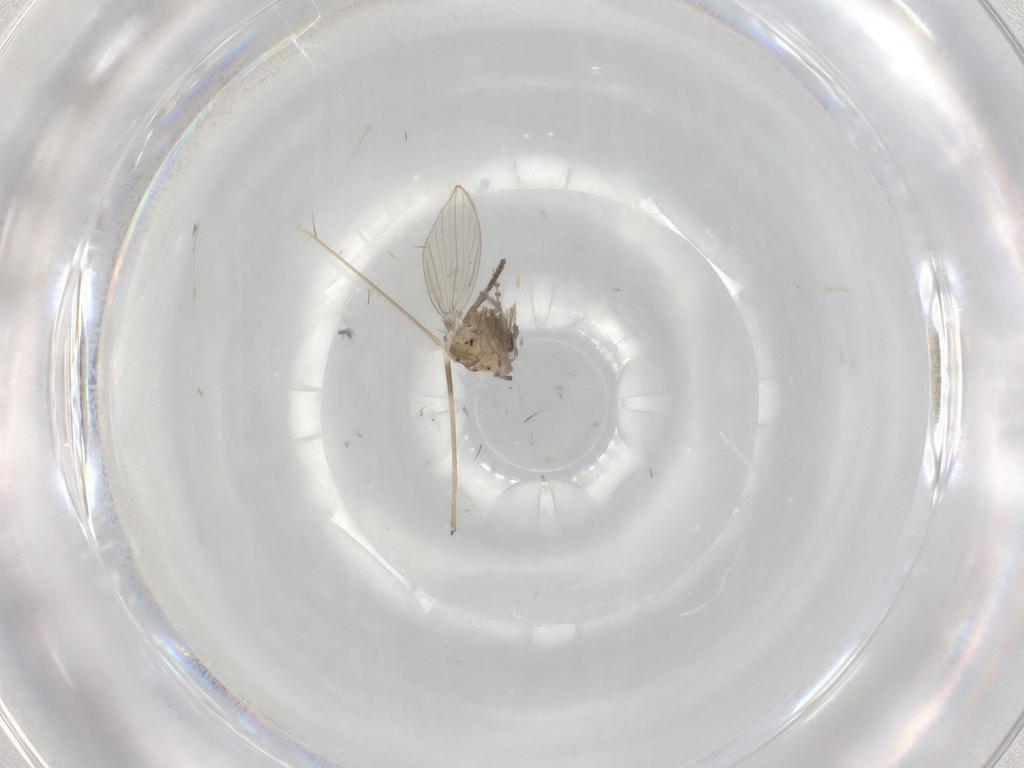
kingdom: Animalia
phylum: Arthropoda
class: Insecta
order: Diptera
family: Psychodidae
